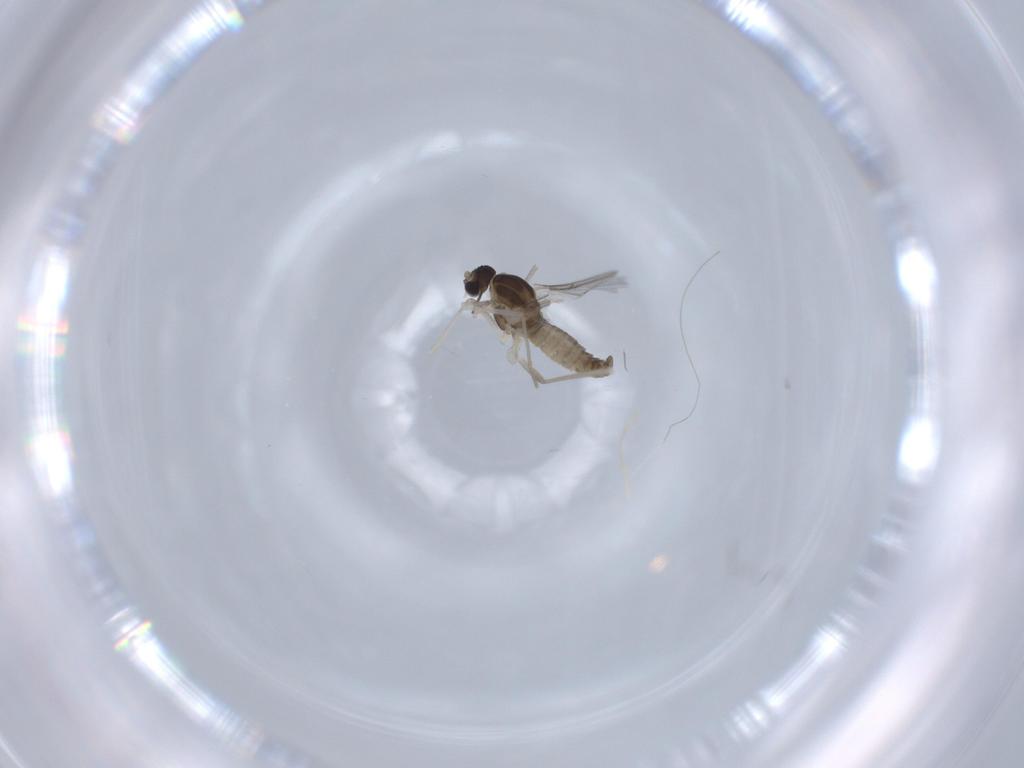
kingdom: Animalia
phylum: Arthropoda
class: Insecta
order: Diptera
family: Cecidomyiidae
